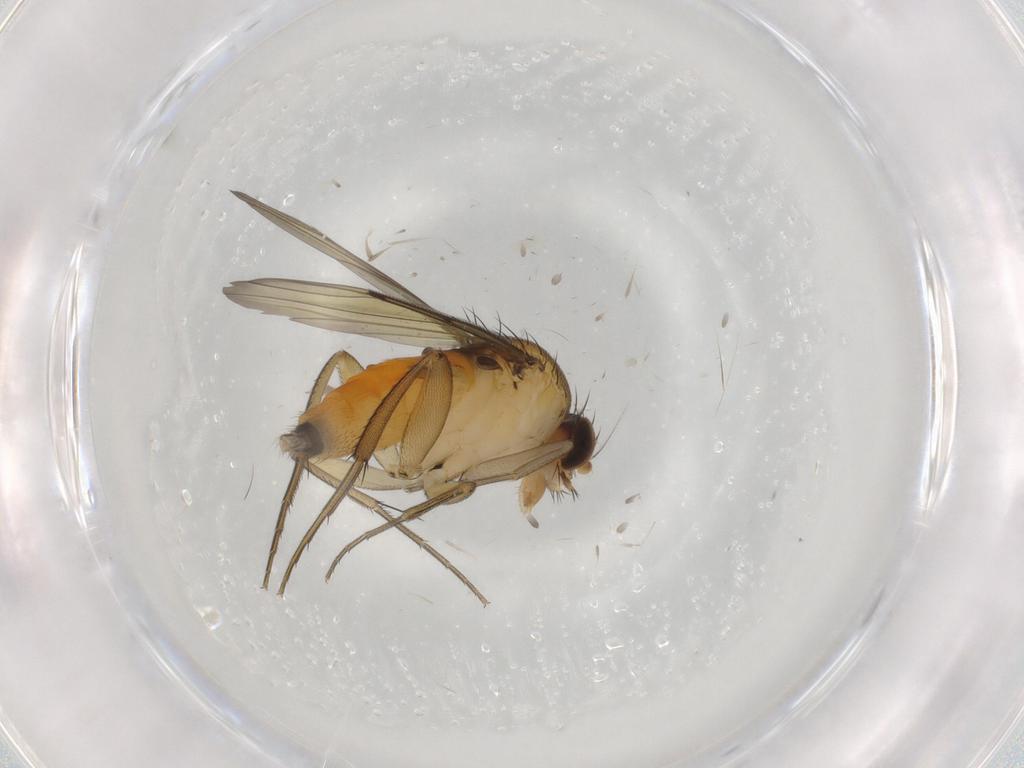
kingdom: Animalia
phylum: Arthropoda
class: Insecta
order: Diptera
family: Phoridae
